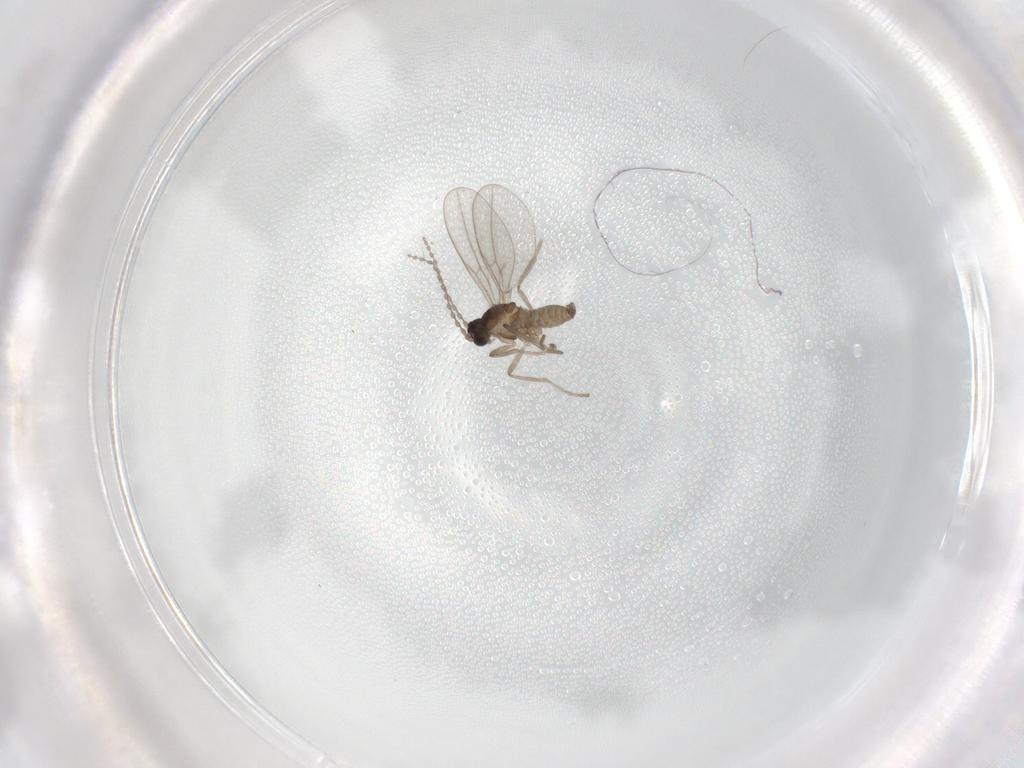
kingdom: Animalia
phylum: Arthropoda
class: Insecta
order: Diptera
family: Cecidomyiidae
